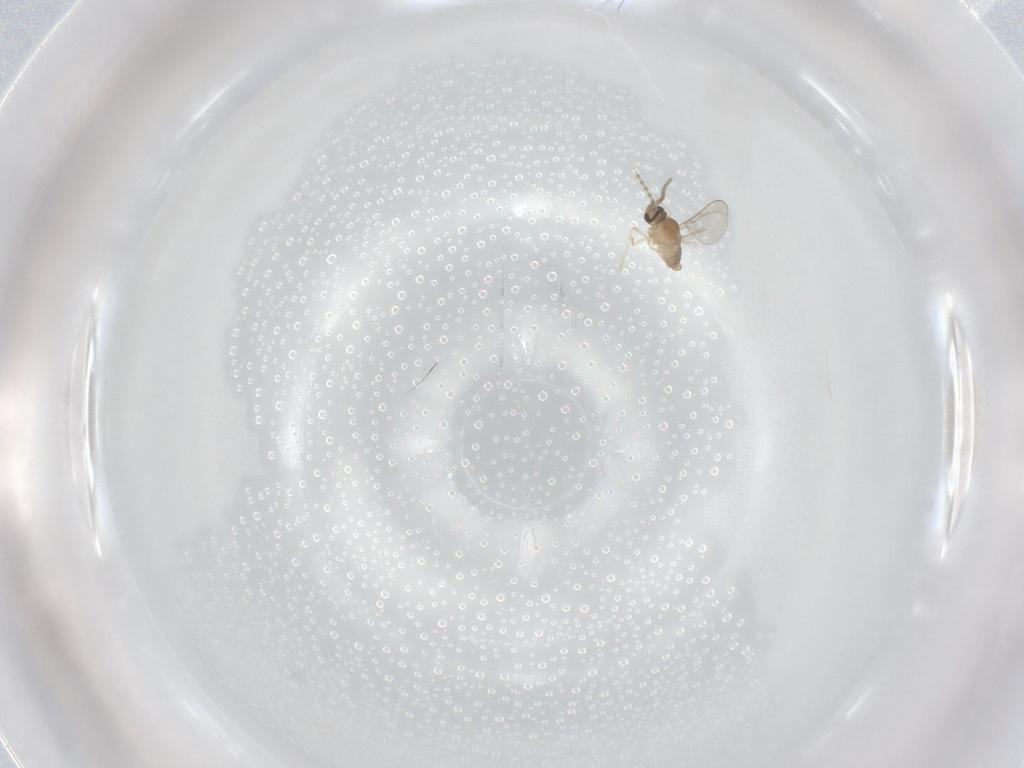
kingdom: Animalia
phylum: Arthropoda
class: Insecta
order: Diptera
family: Cecidomyiidae
